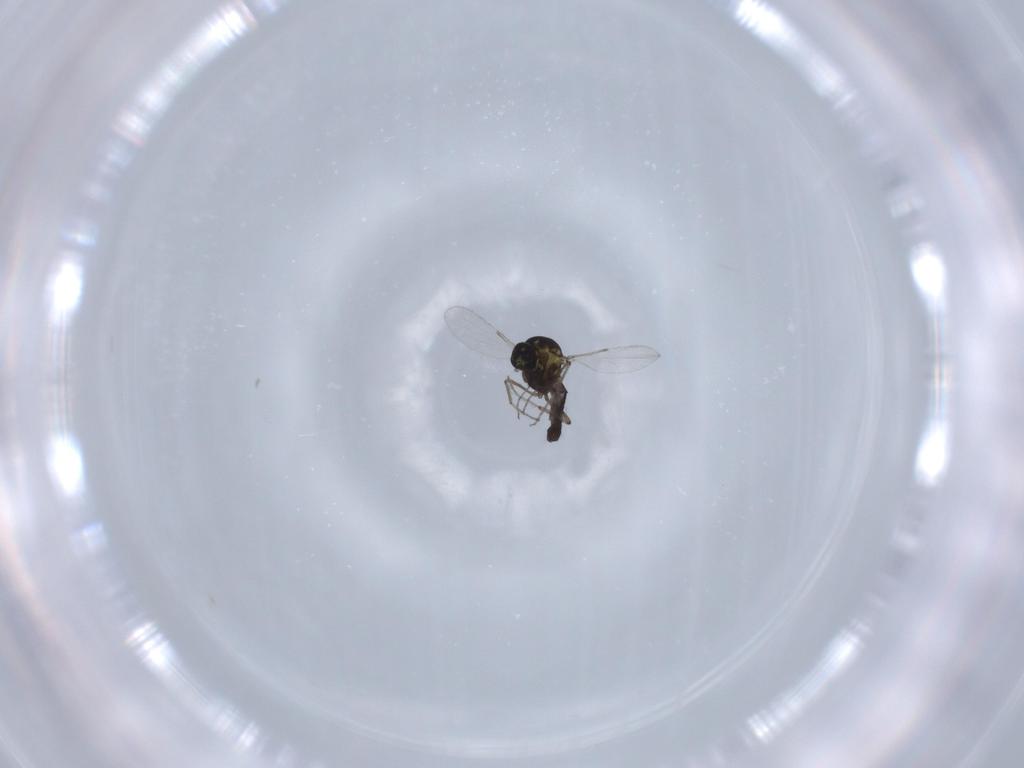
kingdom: Animalia
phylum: Arthropoda
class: Insecta
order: Diptera
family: Ceratopogonidae
